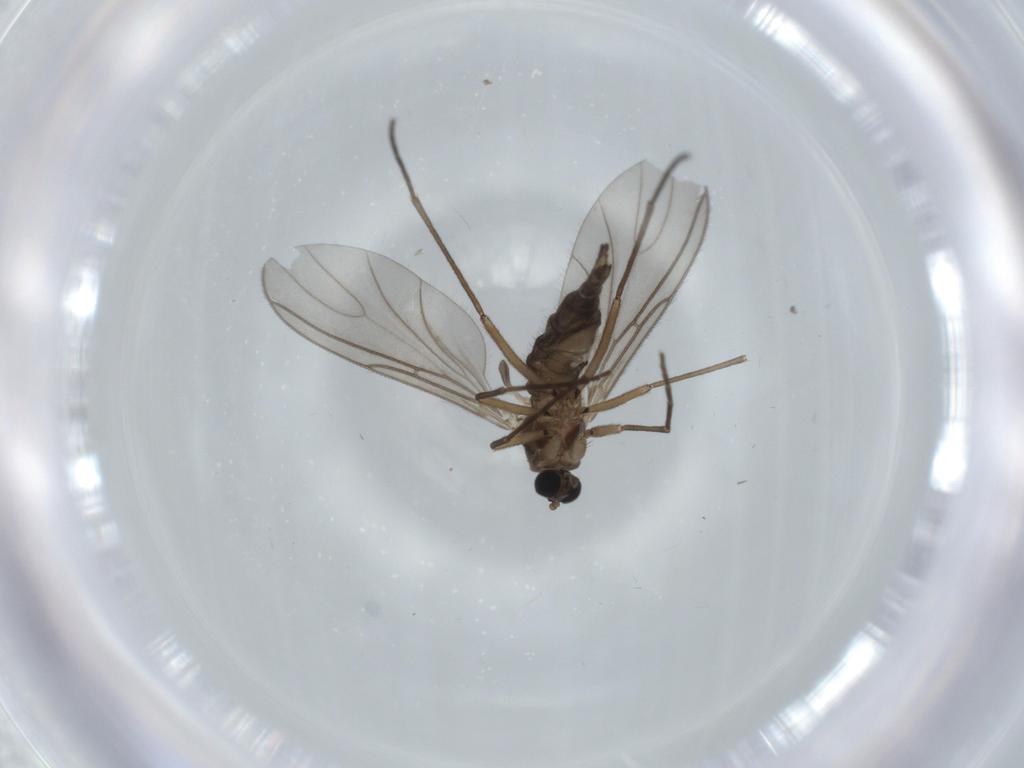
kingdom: Animalia
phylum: Arthropoda
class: Insecta
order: Diptera
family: Sciaridae
